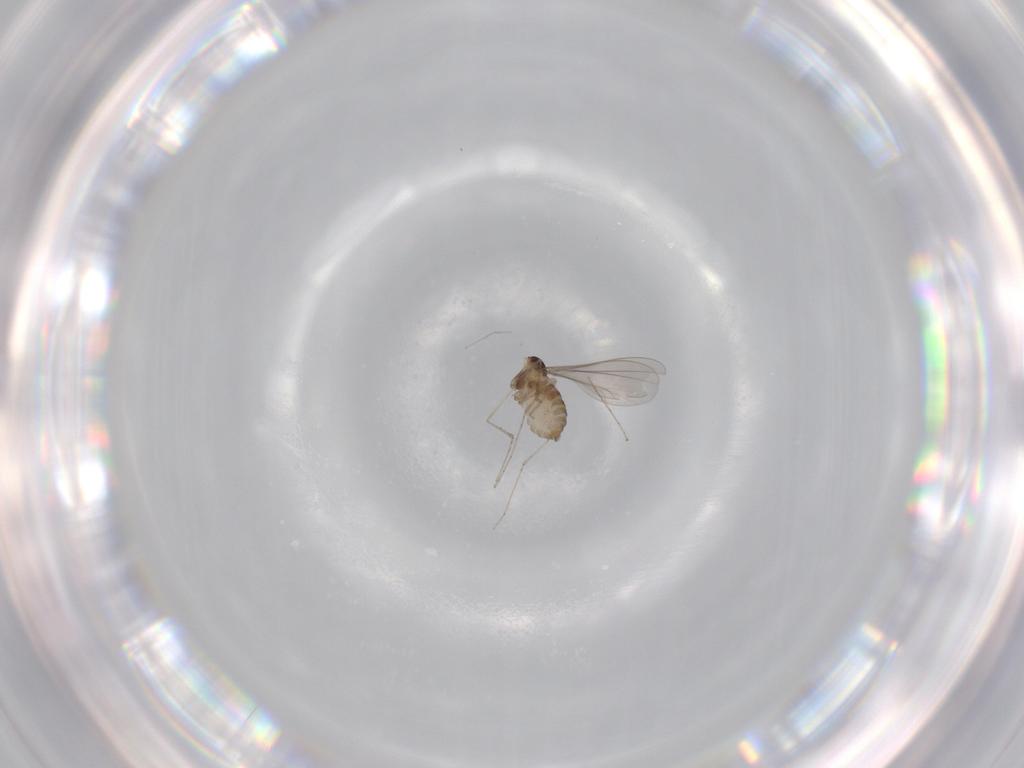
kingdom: Animalia
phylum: Arthropoda
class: Insecta
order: Diptera
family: Cecidomyiidae
